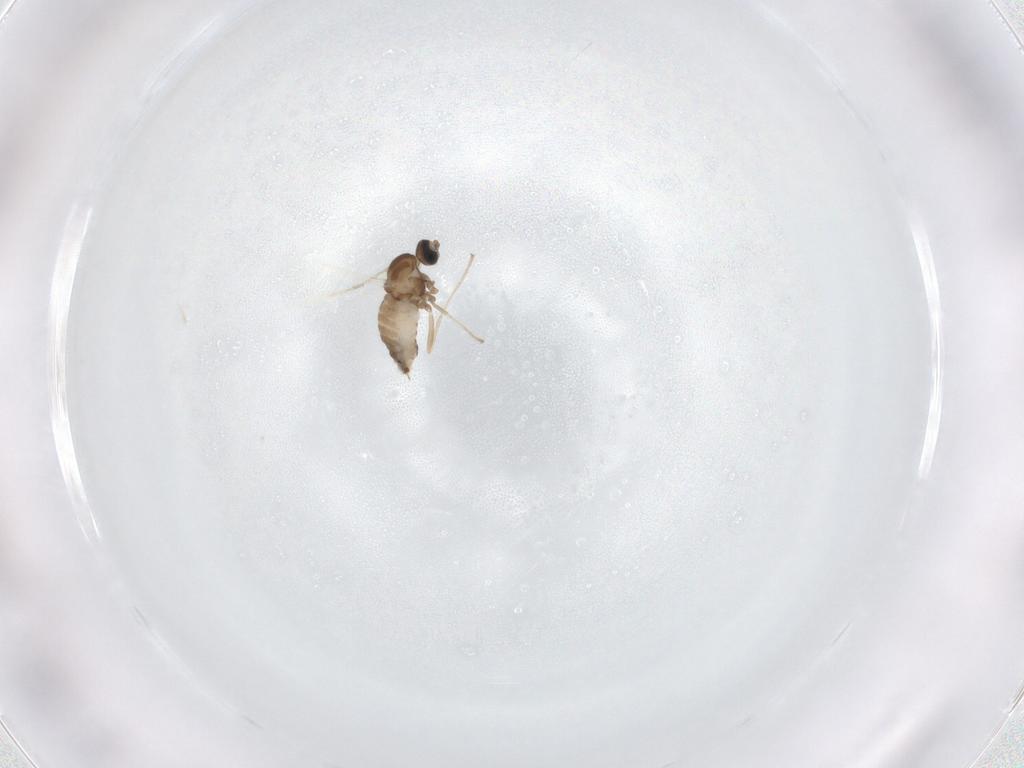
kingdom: Animalia
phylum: Arthropoda
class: Insecta
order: Diptera
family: Cecidomyiidae
